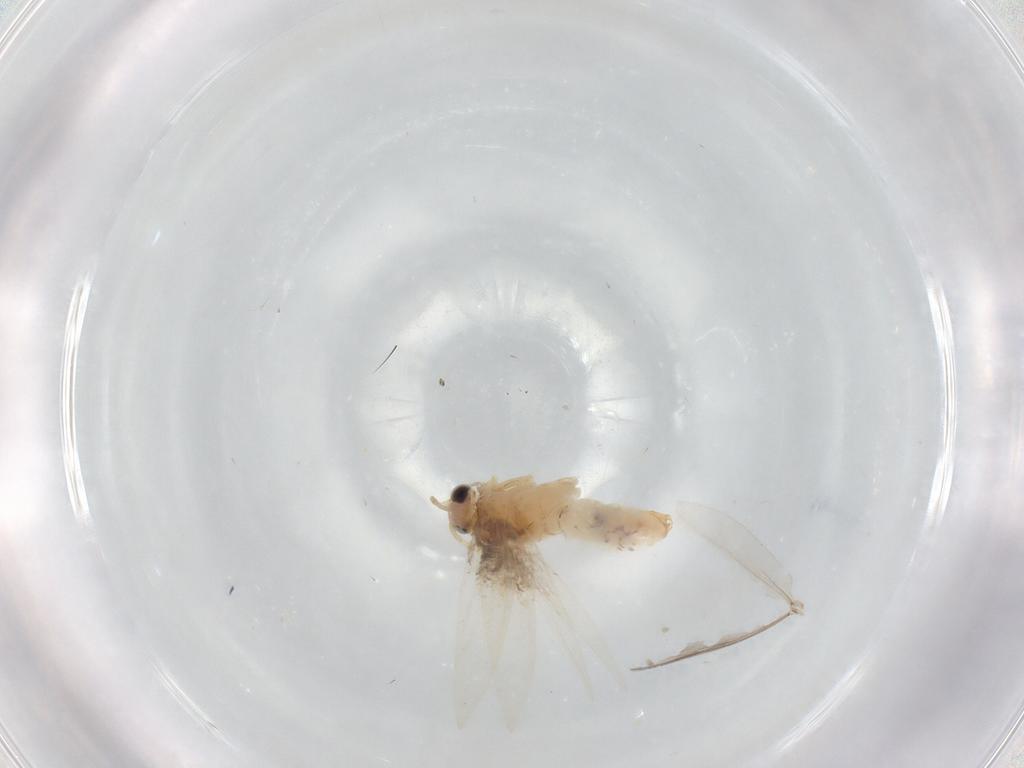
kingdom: Animalia
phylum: Arthropoda
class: Insecta
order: Lepidoptera
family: Nepticulidae
